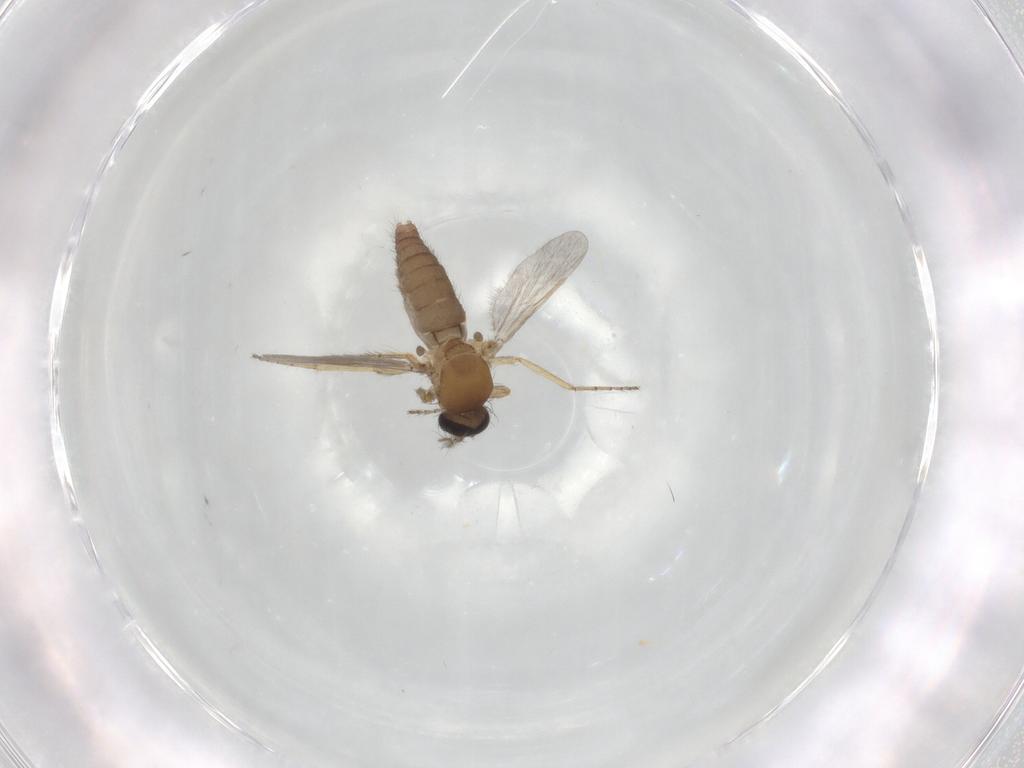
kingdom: Animalia
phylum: Arthropoda
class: Insecta
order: Diptera
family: Ceratopogonidae
